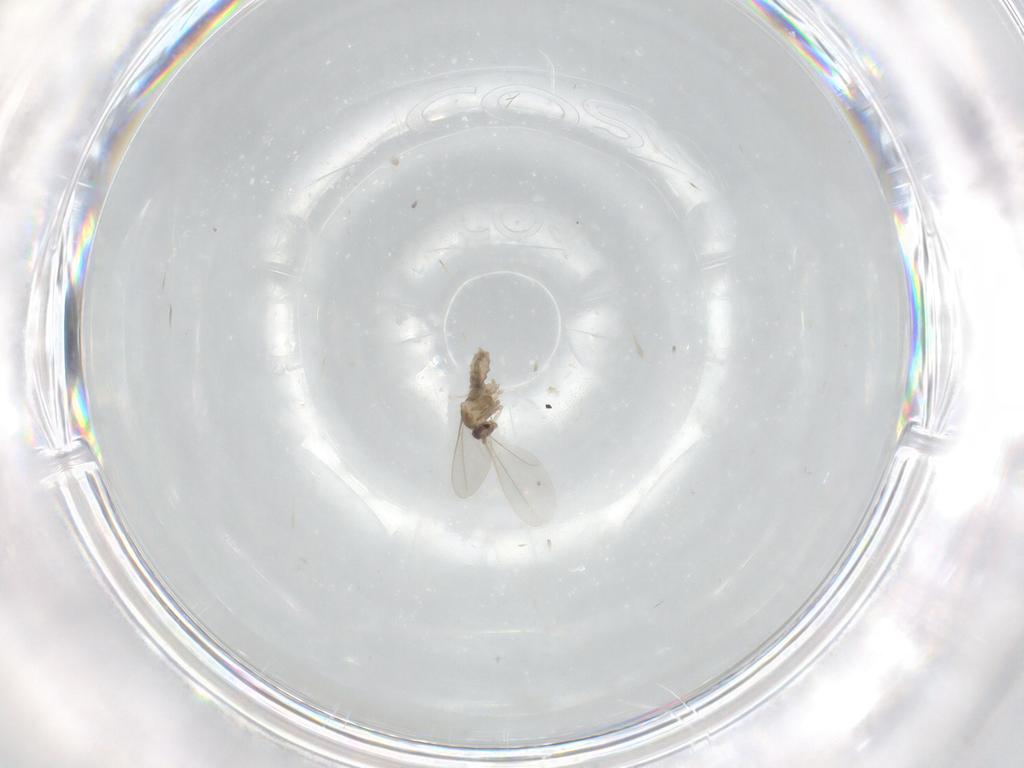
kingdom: Animalia
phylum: Arthropoda
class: Insecta
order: Diptera
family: Cecidomyiidae
